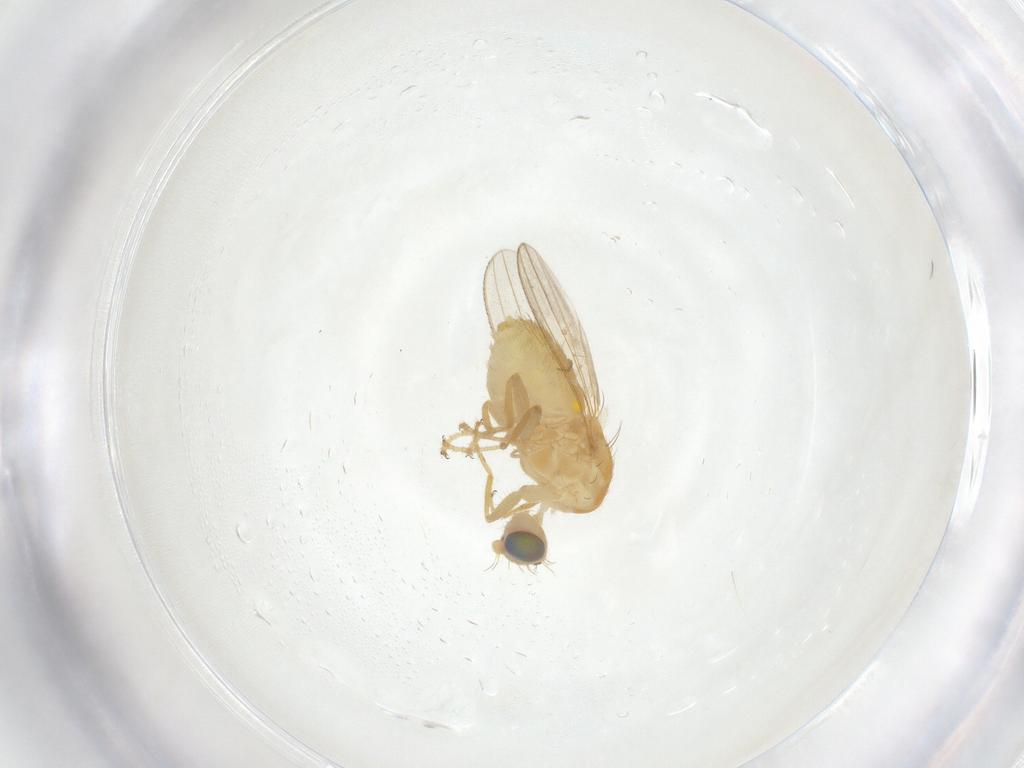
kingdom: Animalia
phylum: Arthropoda
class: Insecta
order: Diptera
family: Chyromyidae
